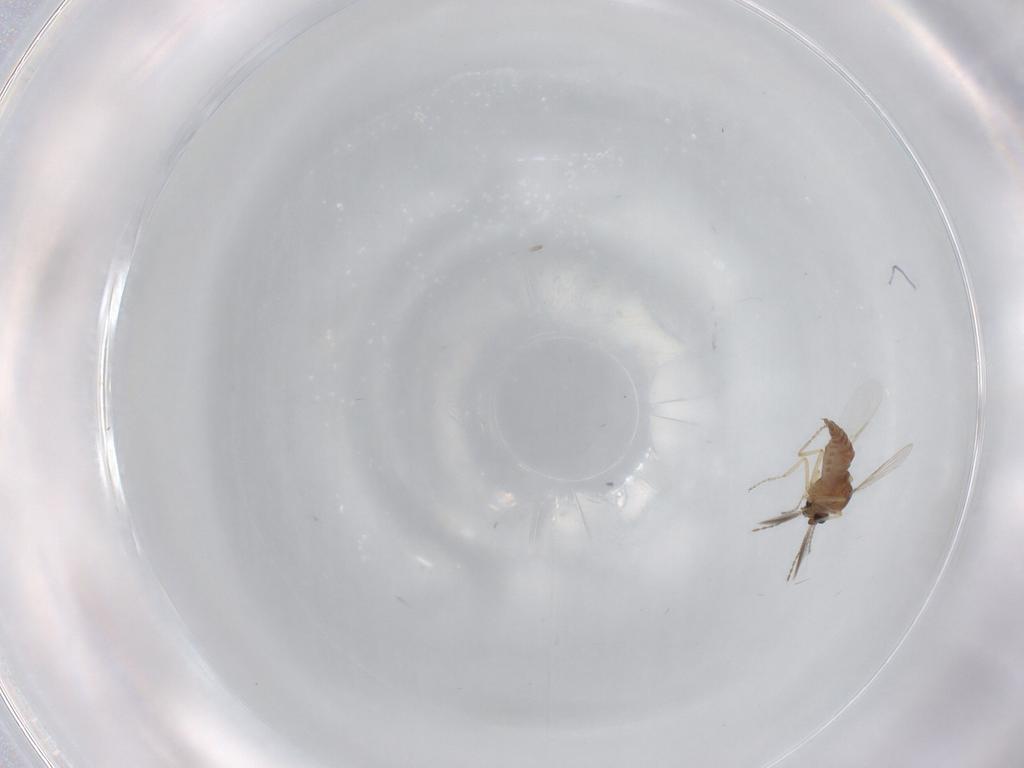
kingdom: Animalia
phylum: Arthropoda
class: Insecta
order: Diptera
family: Ceratopogonidae
